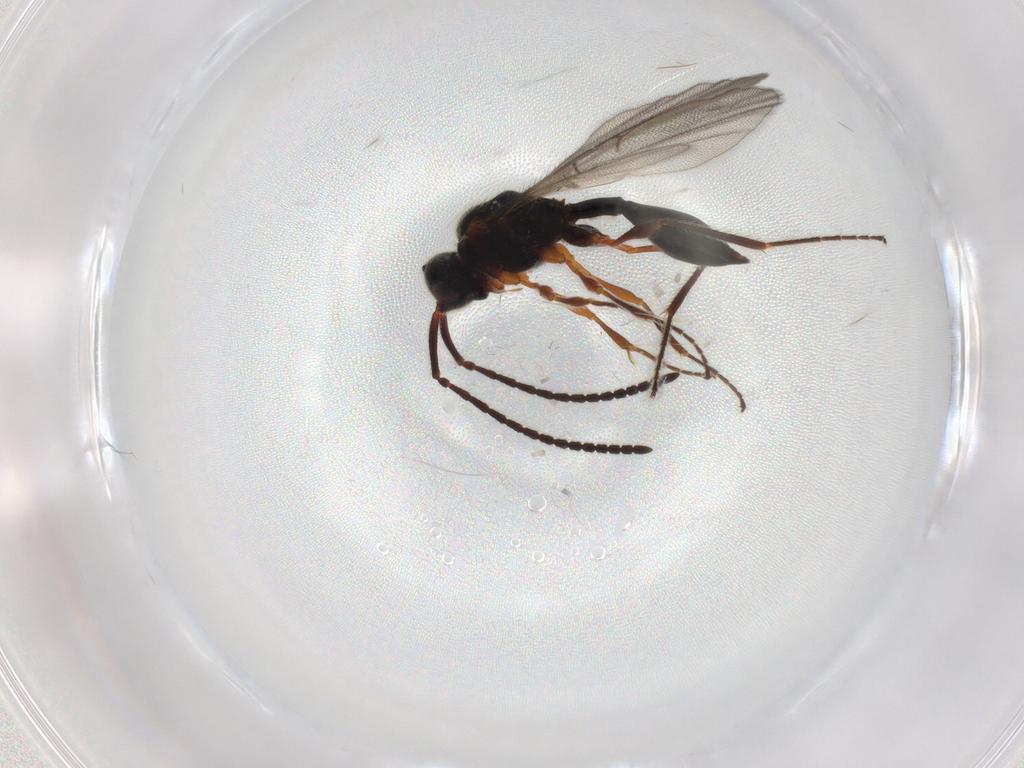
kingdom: Animalia
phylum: Arthropoda
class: Insecta
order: Hymenoptera
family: Diapriidae
